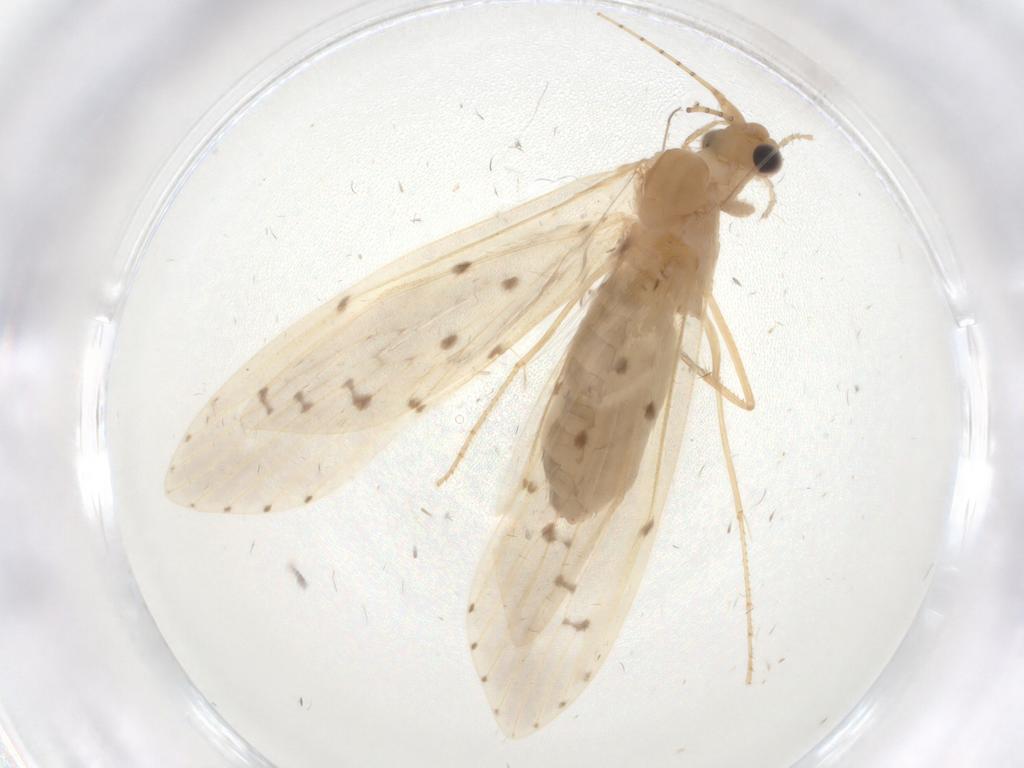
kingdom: Animalia
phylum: Arthropoda
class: Insecta
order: Trichoptera
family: Leptoceridae
